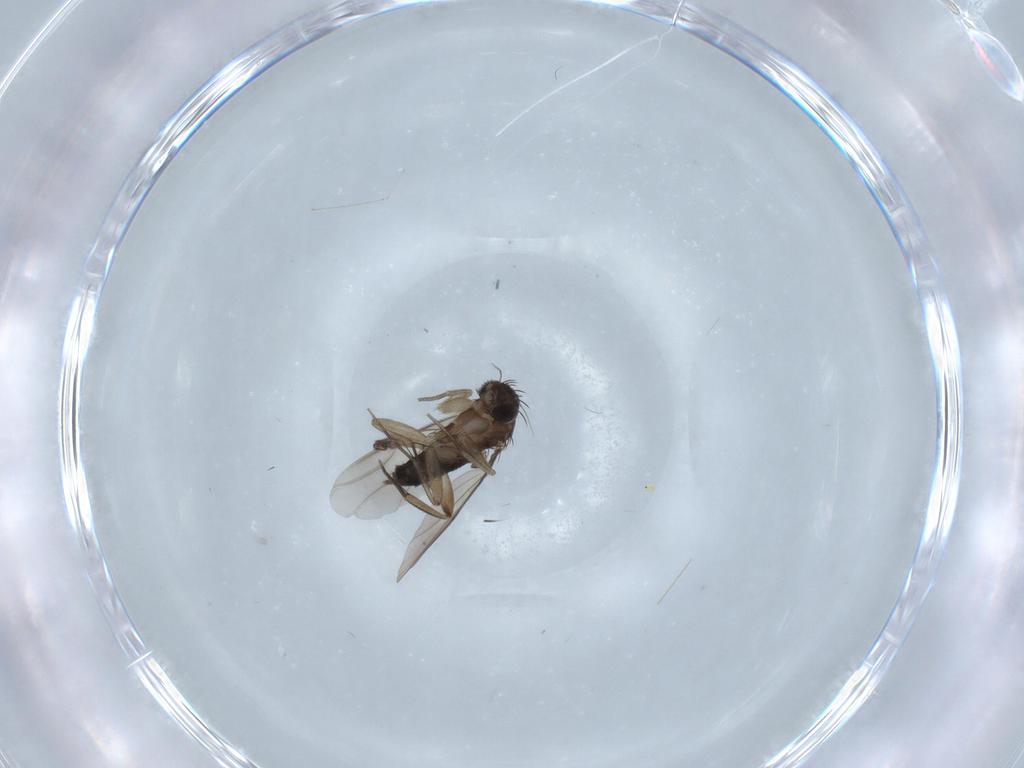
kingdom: Animalia
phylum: Arthropoda
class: Insecta
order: Diptera
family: Phoridae
